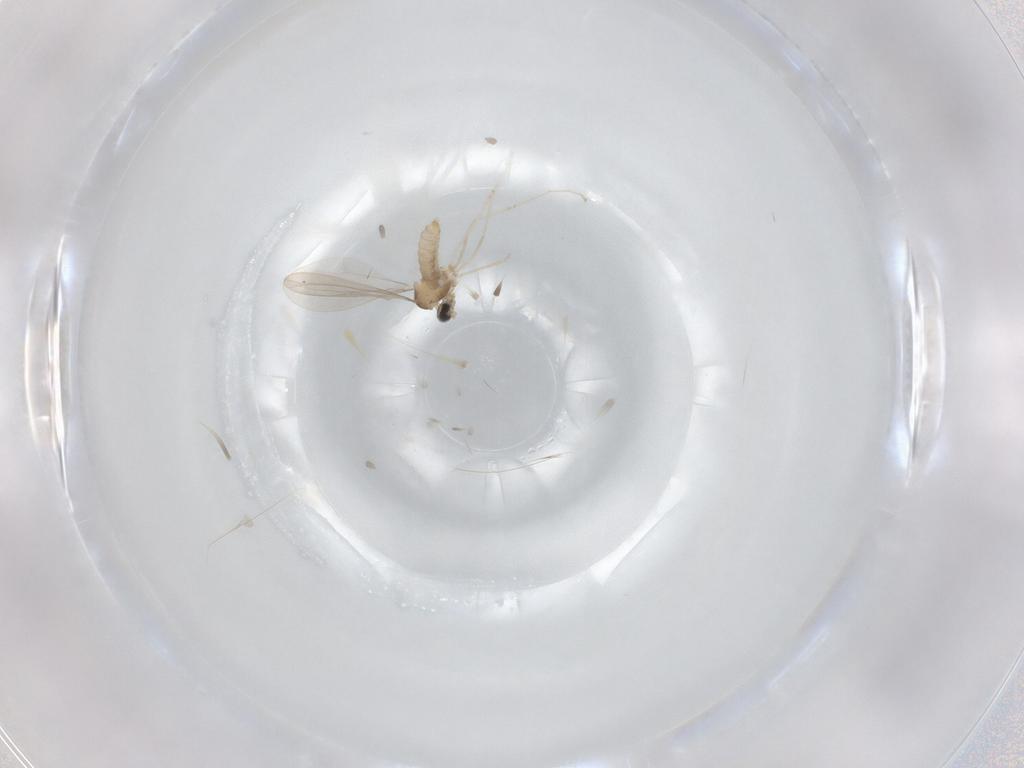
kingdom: Animalia
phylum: Arthropoda
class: Insecta
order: Diptera
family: Cecidomyiidae
